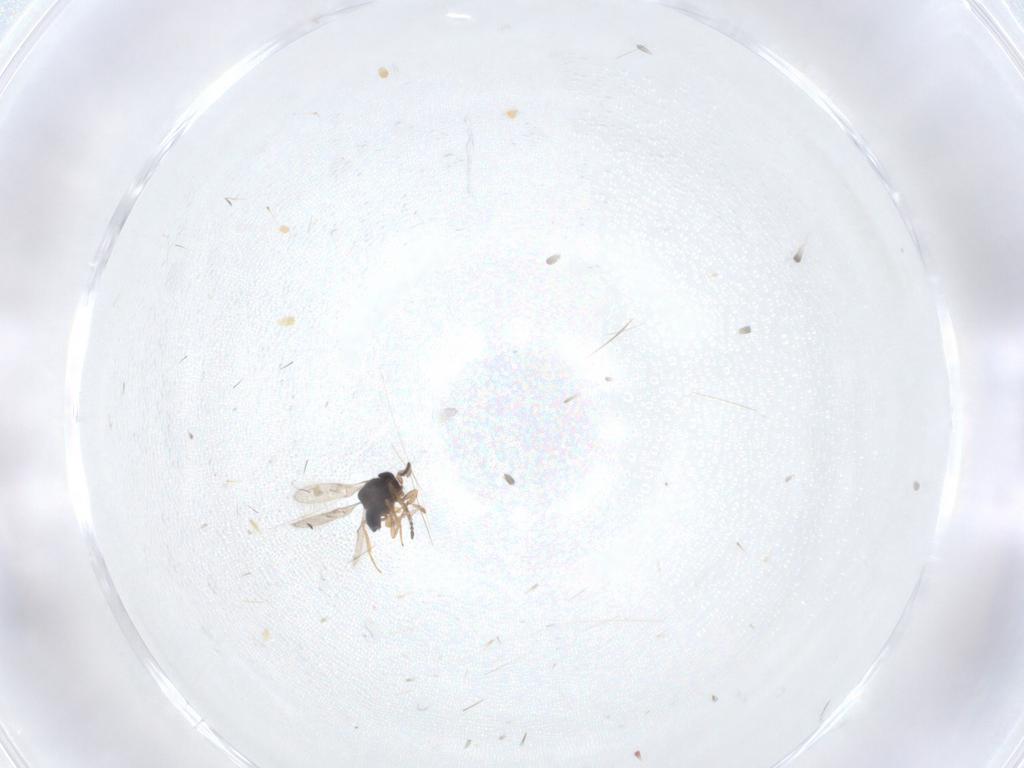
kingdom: Animalia
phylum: Arthropoda
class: Insecta
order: Hymenoptera
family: Scelionidae
